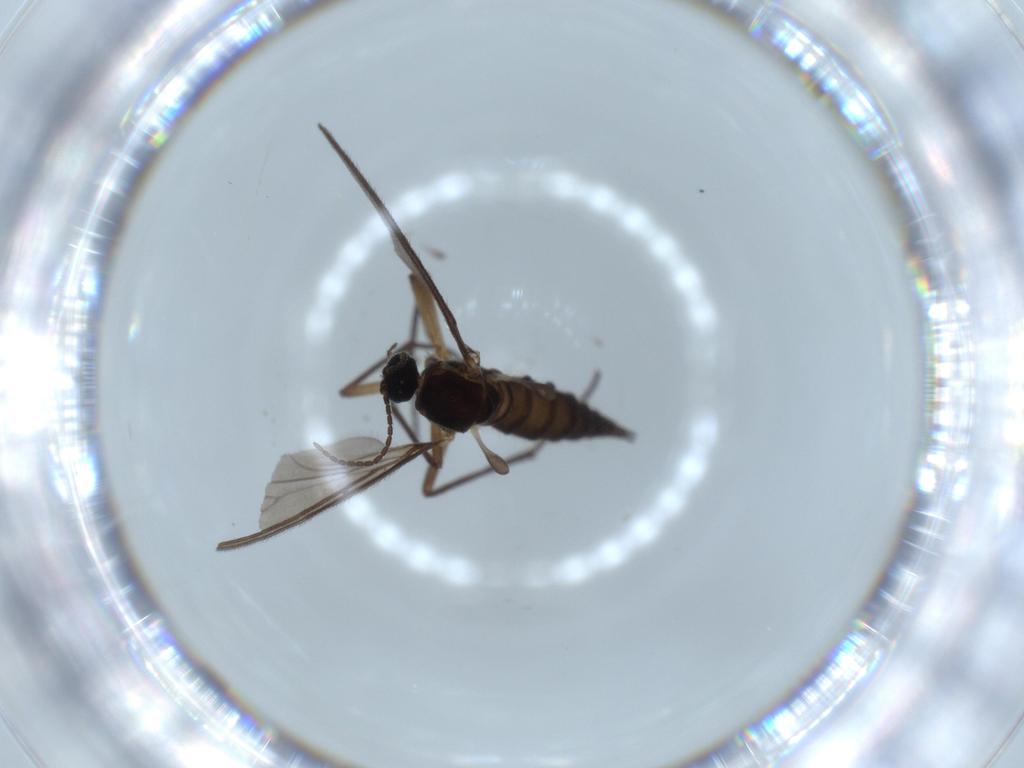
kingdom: Animalia
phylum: Arthropoda
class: Insecta
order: Diptera
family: Sciaridae
